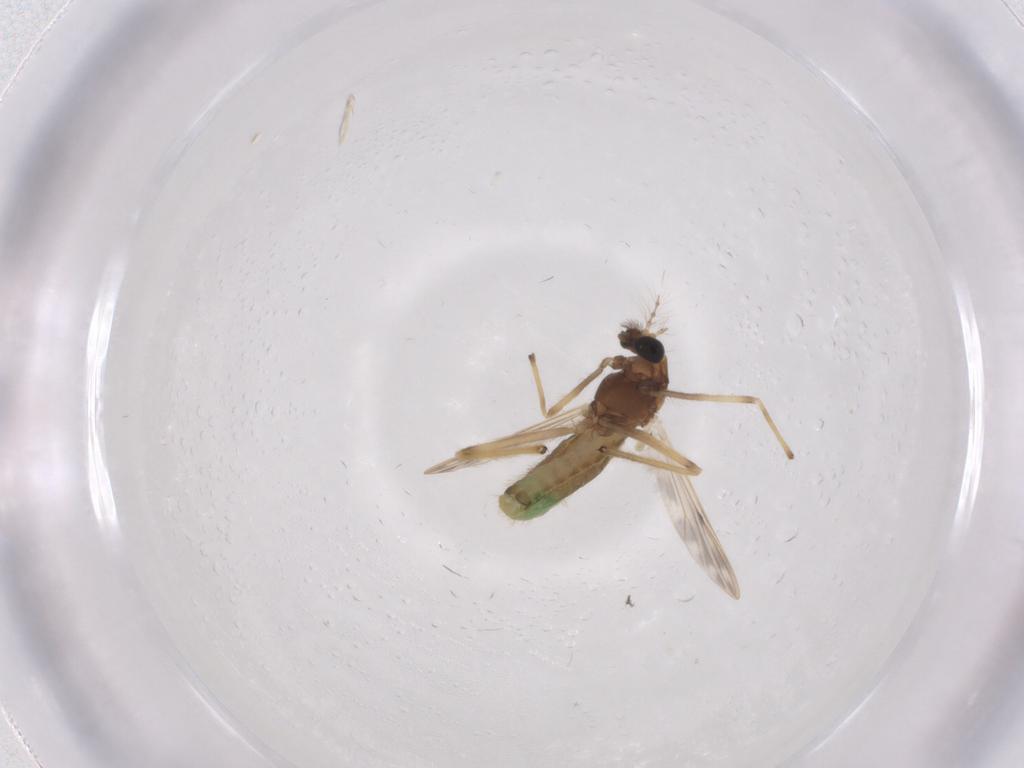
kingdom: Animalia
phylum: Arthropoda
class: Insecta
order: Diptera
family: Chironomidae
